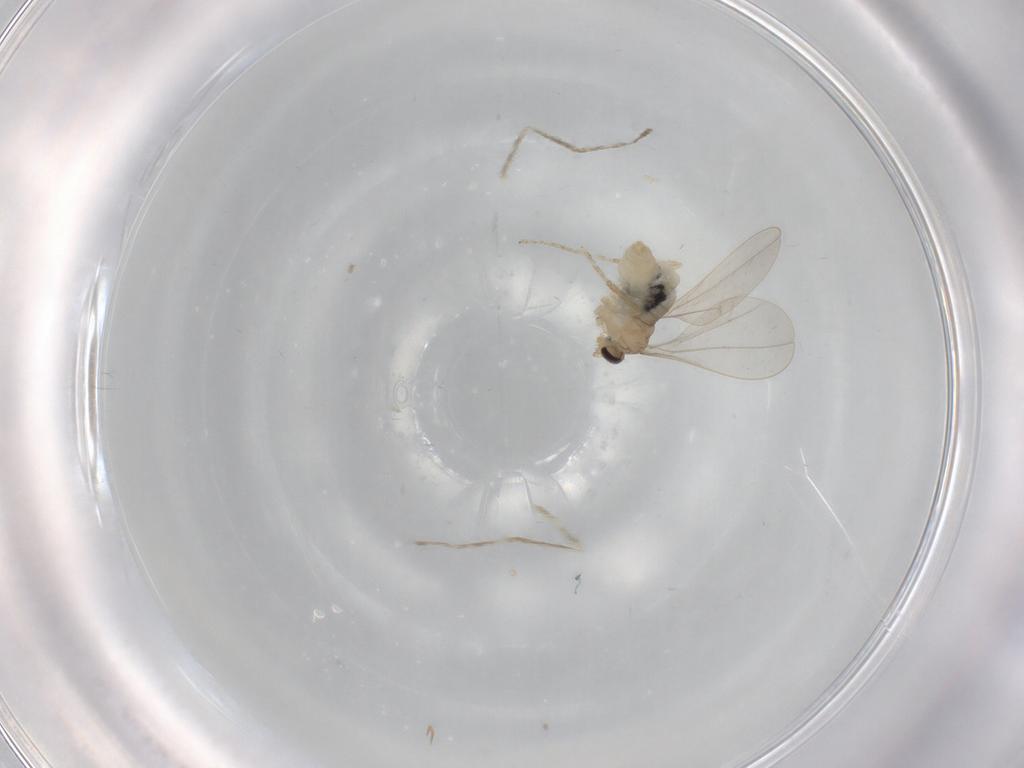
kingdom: Animalia
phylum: Arthropoda
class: Insecta
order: Diptera
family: Cecidomyiidae
